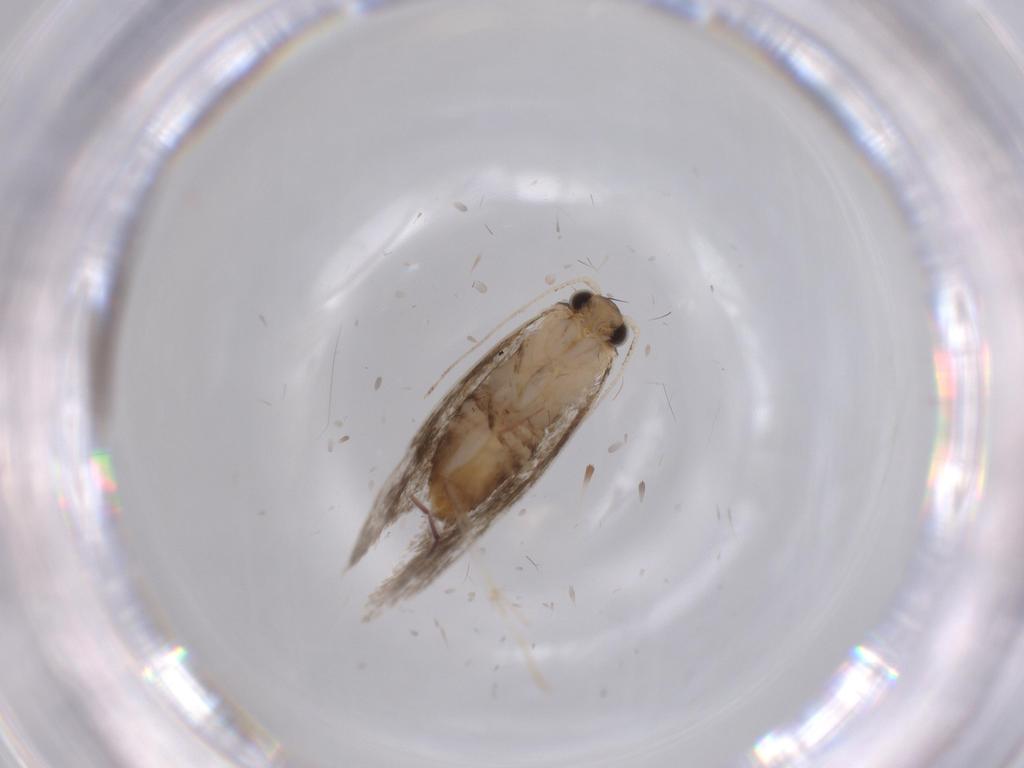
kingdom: Animalia
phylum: Arthropoda
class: Insecta
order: Lepidoptera
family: Tineidae
